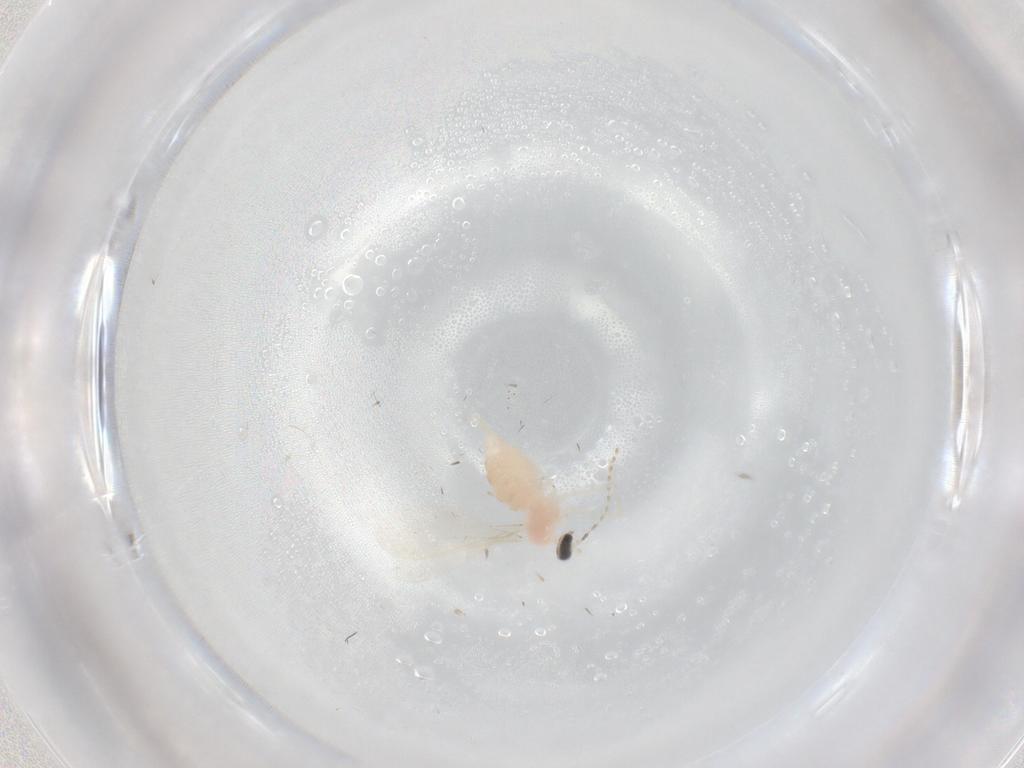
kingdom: Animalia
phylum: Arthropoda
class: Insecta
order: Diptera
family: Cecidomyiidae
